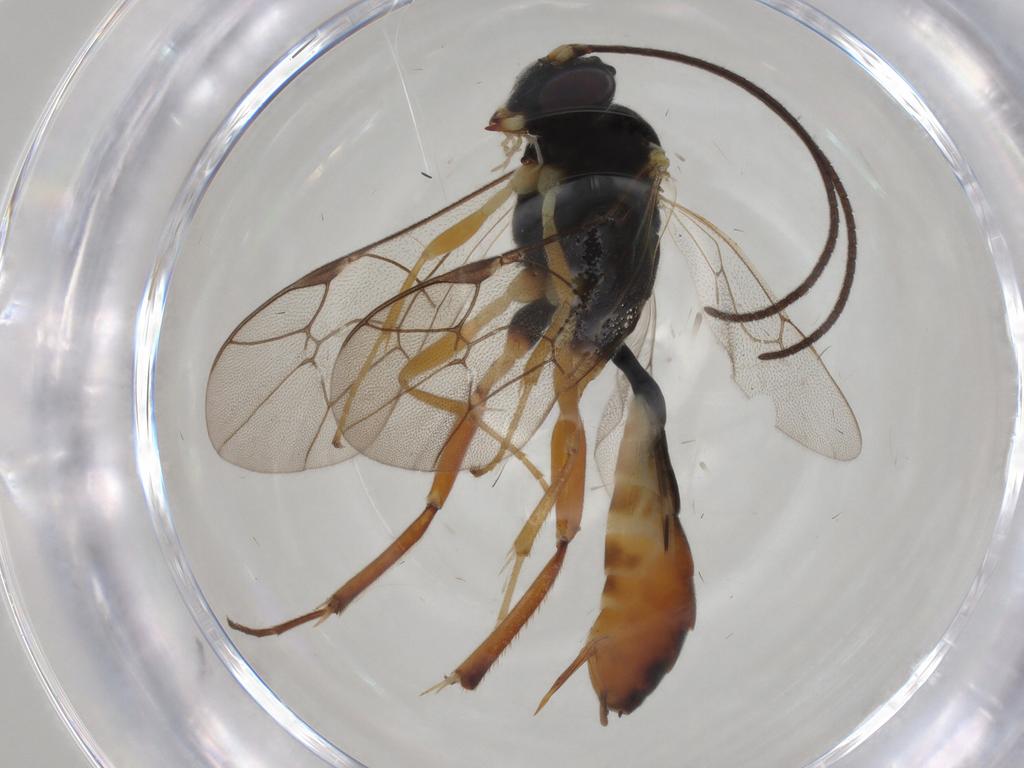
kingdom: Animalia
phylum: Arthropoda
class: Insecta
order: Hymenoptera
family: Ichneumonidae
